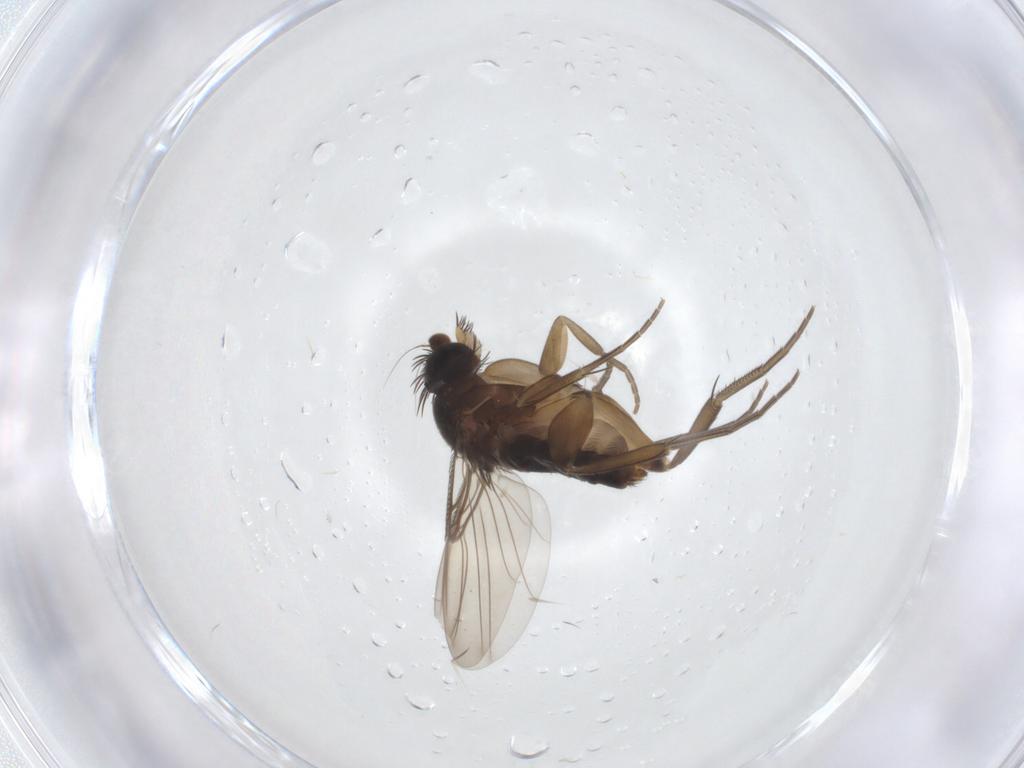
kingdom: Animalia
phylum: Arthropoda
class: Insecta
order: Diptera
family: Phoridae
